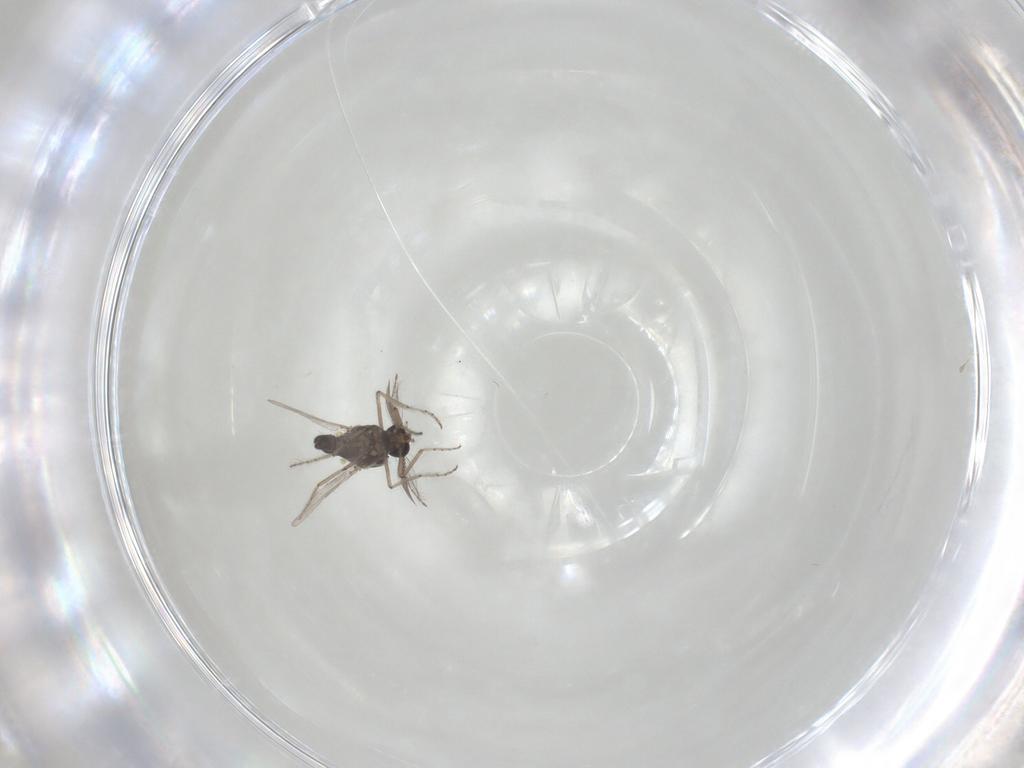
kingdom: Animalia
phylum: Arthropoda
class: Insecta
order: Diptera
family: Ceratopogonidae
